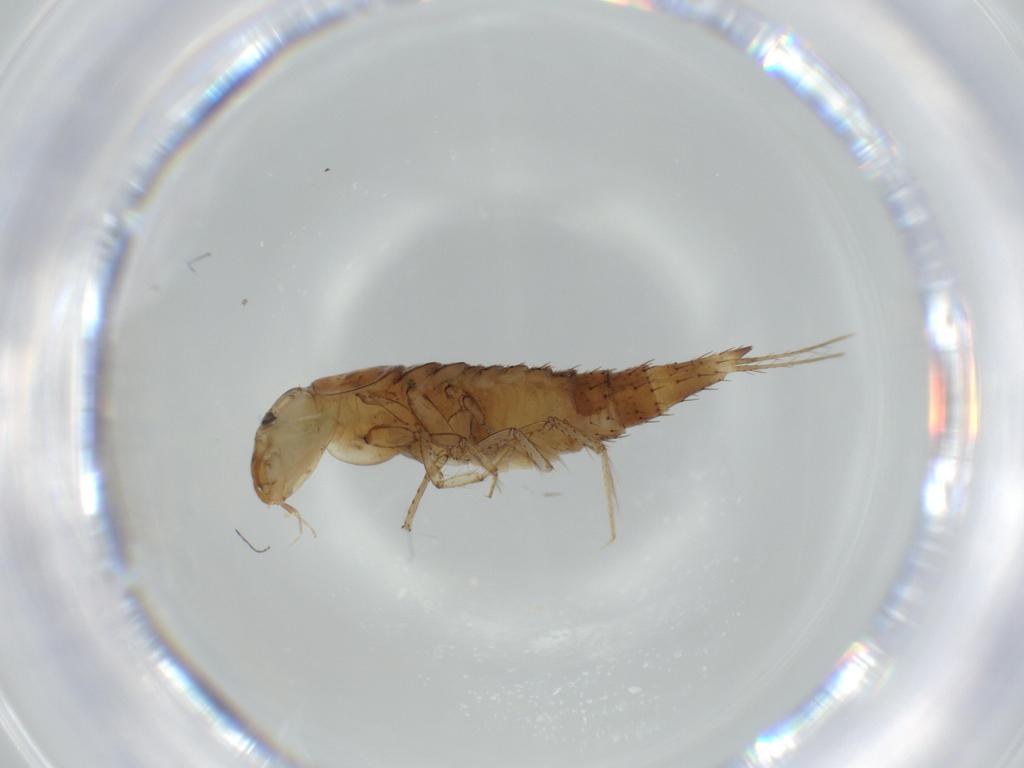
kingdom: Animalia
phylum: Arthropoda
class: Insecta
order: Coleoptera
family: Dytiscidae
